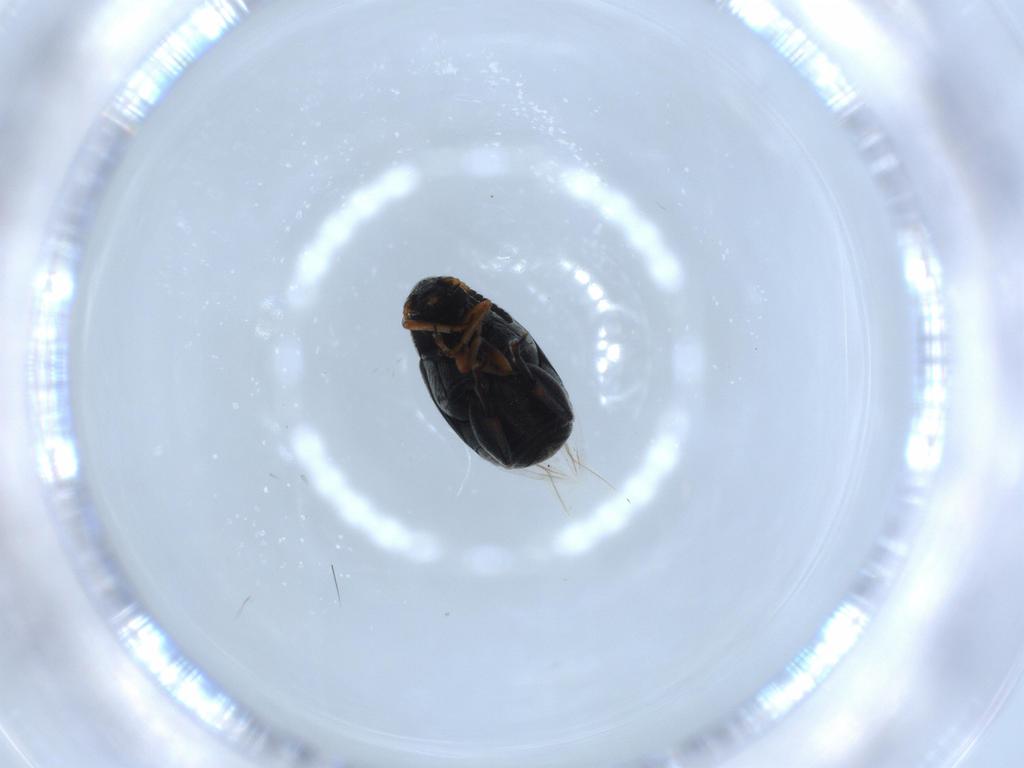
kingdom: Animalia
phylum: Arthropoda
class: Insecta
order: Coleoptera
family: Chrysomelidae
